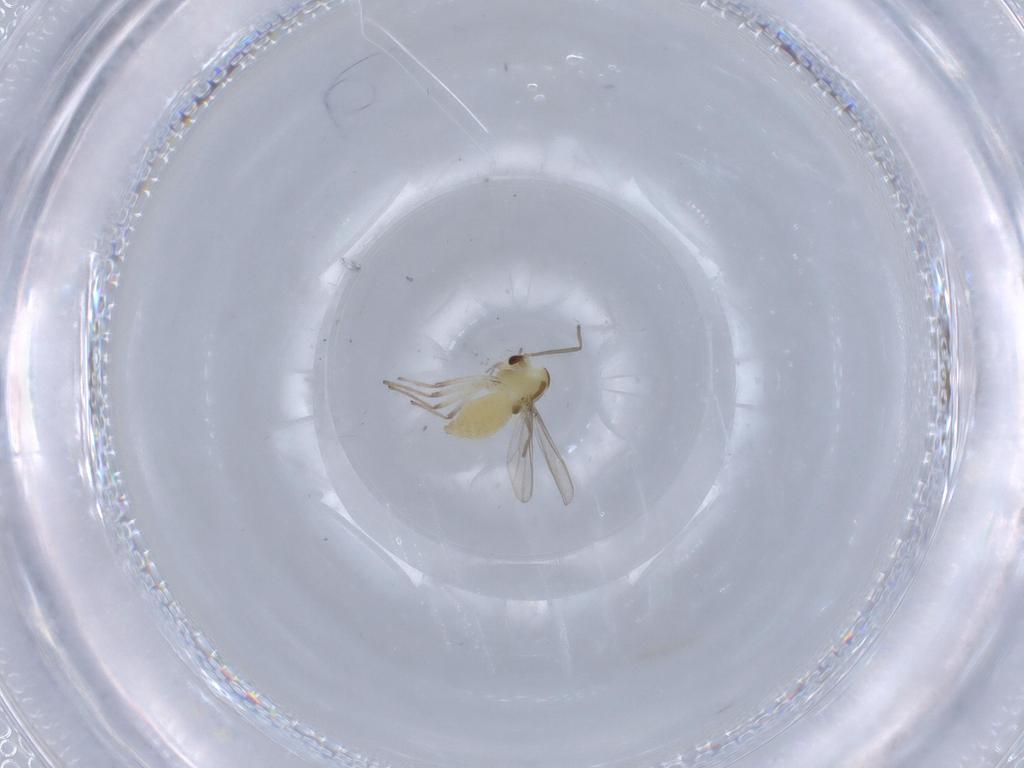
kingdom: Animalia
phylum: Arthropoda
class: Insecta
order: Diptera
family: Chironomidae
